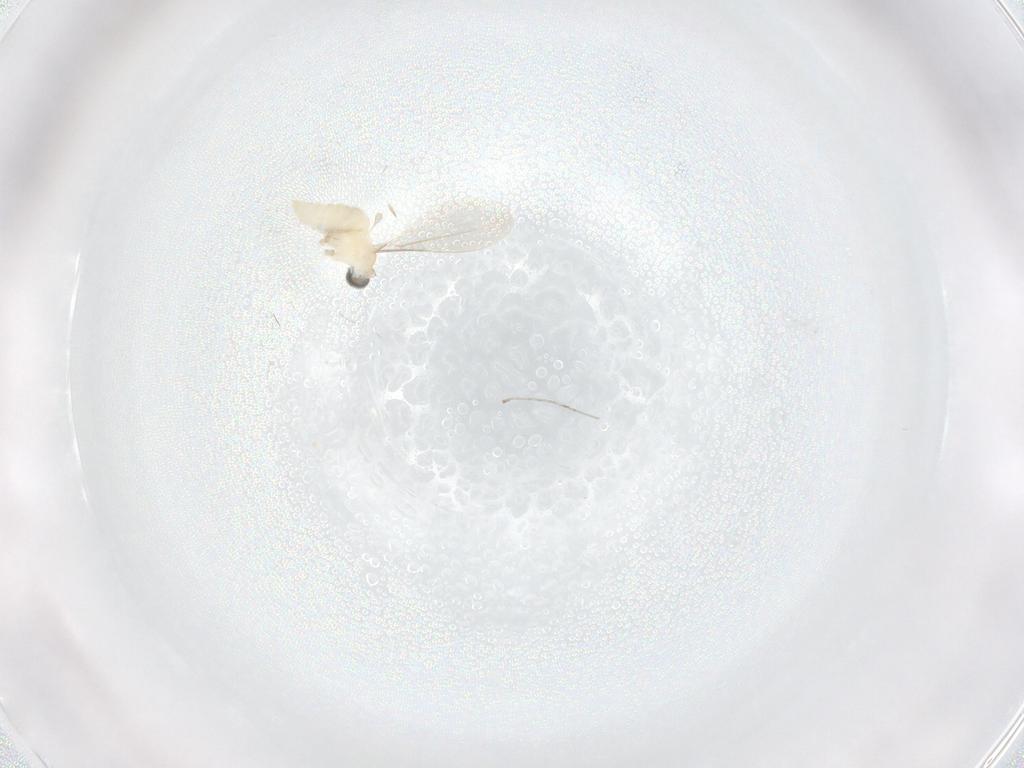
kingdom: Animalia
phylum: Arthropoda
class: Insecta
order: Diptera
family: Cecidomyiidae
